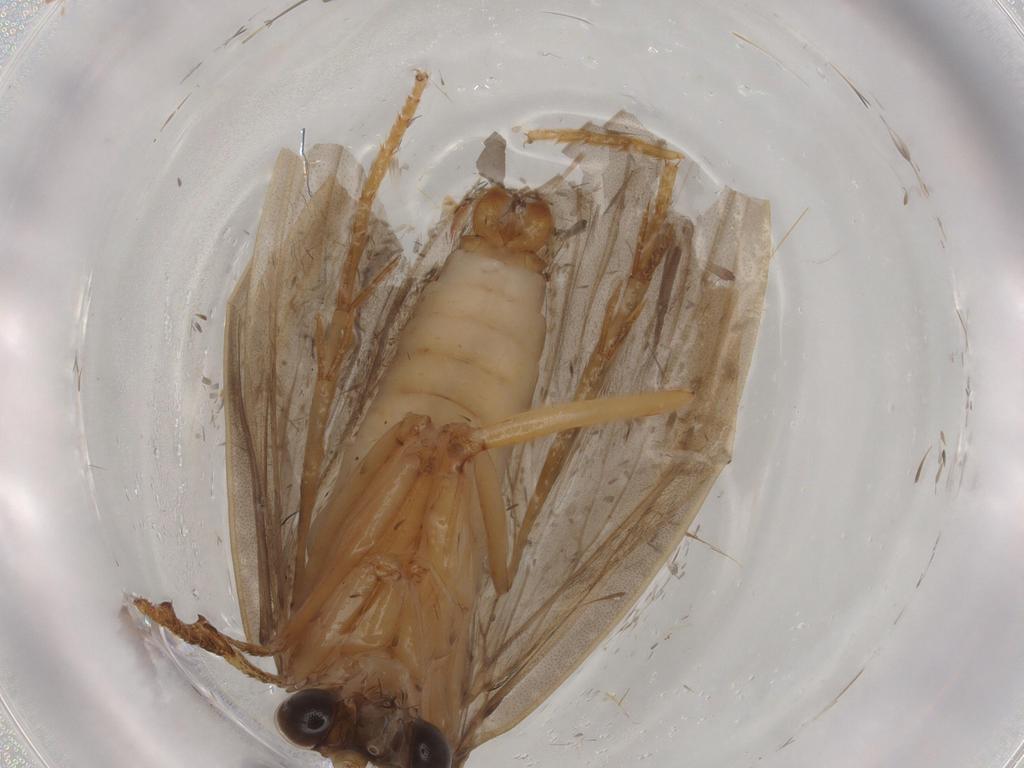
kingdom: Animalia
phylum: Arthropoda
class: Insecta
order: Trichoptera
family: Lepidostomatidae
